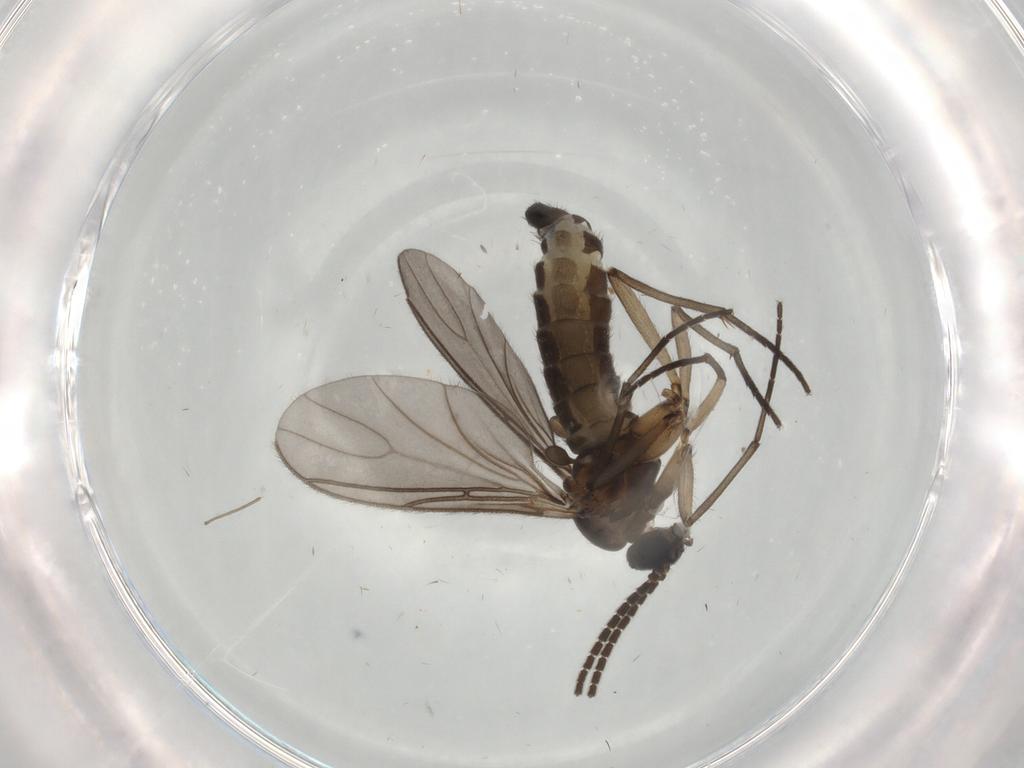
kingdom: Animalia
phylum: Arthropoda
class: Insecta
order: Diptera
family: Sciaridae
